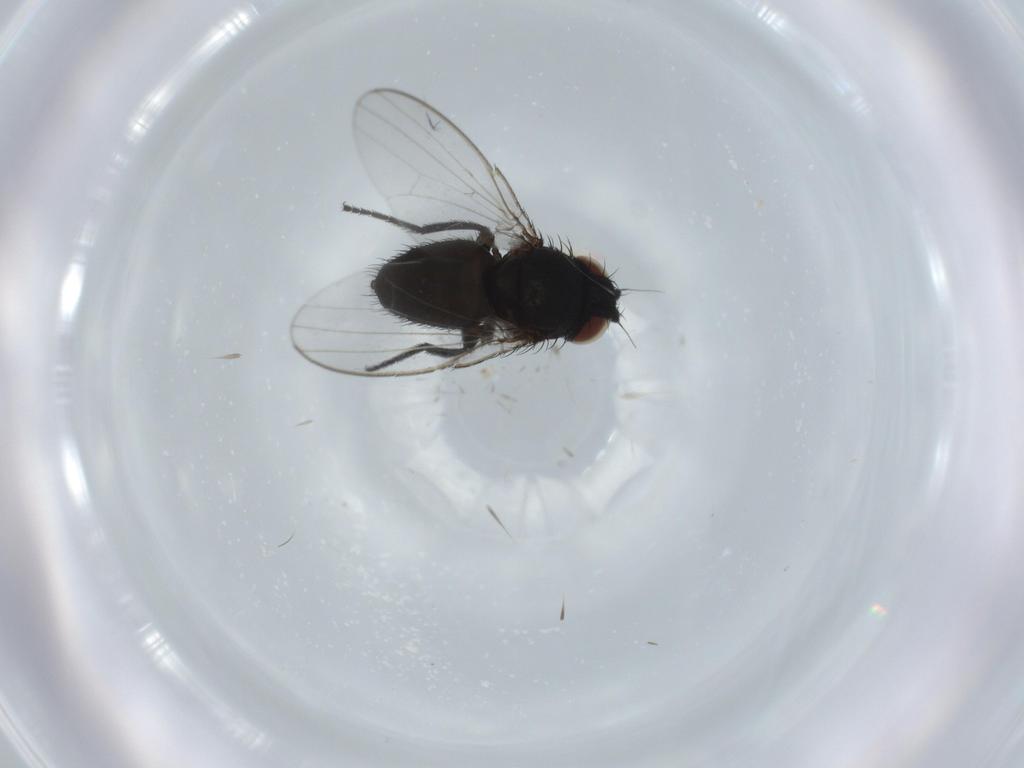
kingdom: Animalia
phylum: Arthropoda
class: Insecta
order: Diptera
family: Milichiidae
